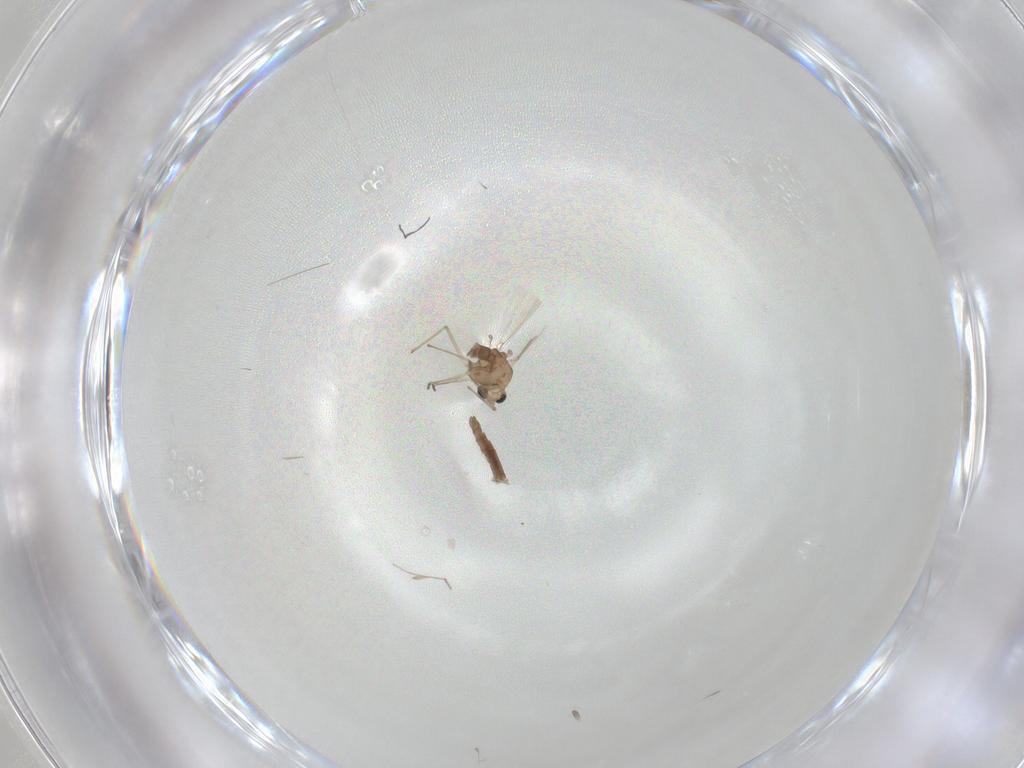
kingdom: Animalia
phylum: Arthropoda
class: Insecta
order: Diptera
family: Chironomidae
